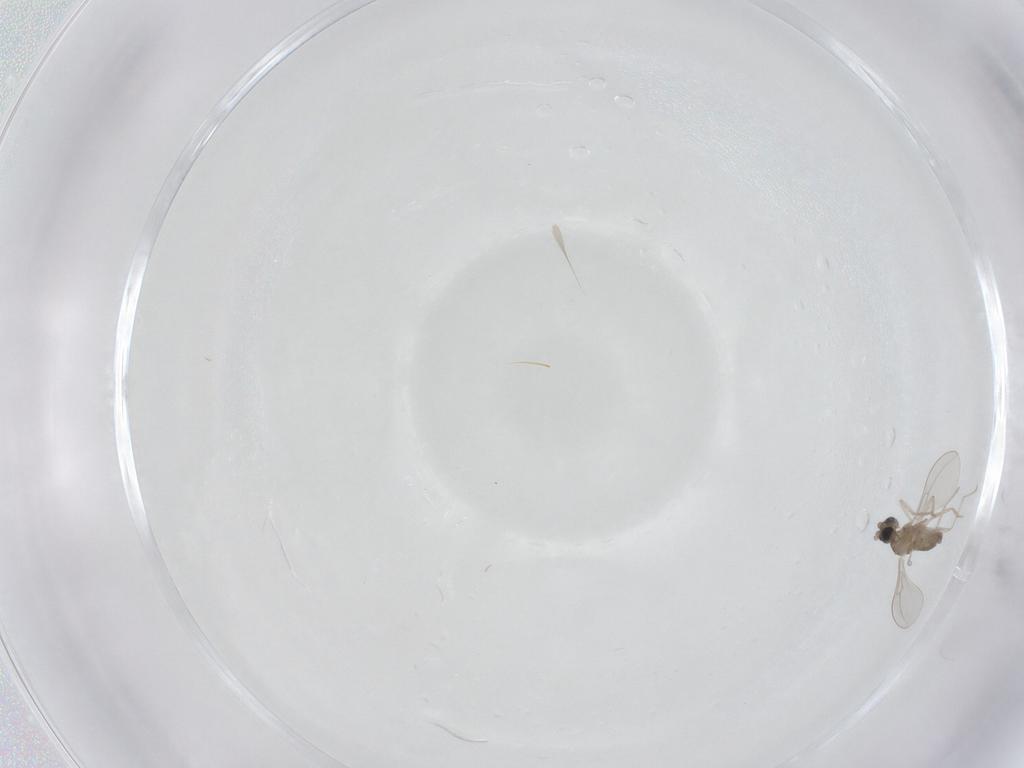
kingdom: Animalia
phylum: Arthropoda
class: Insecta
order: Diptera
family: Cecidomyiidae
